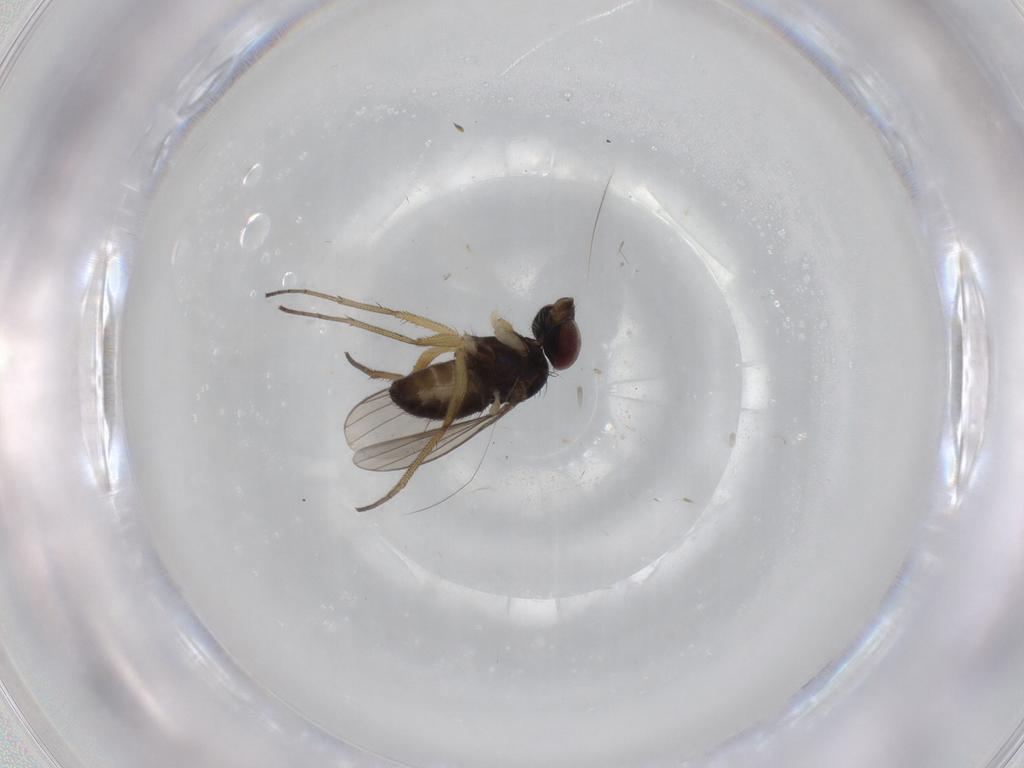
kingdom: Animalia
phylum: Arthropoda
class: Insecta
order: Diptera
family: Dolichopodidae
